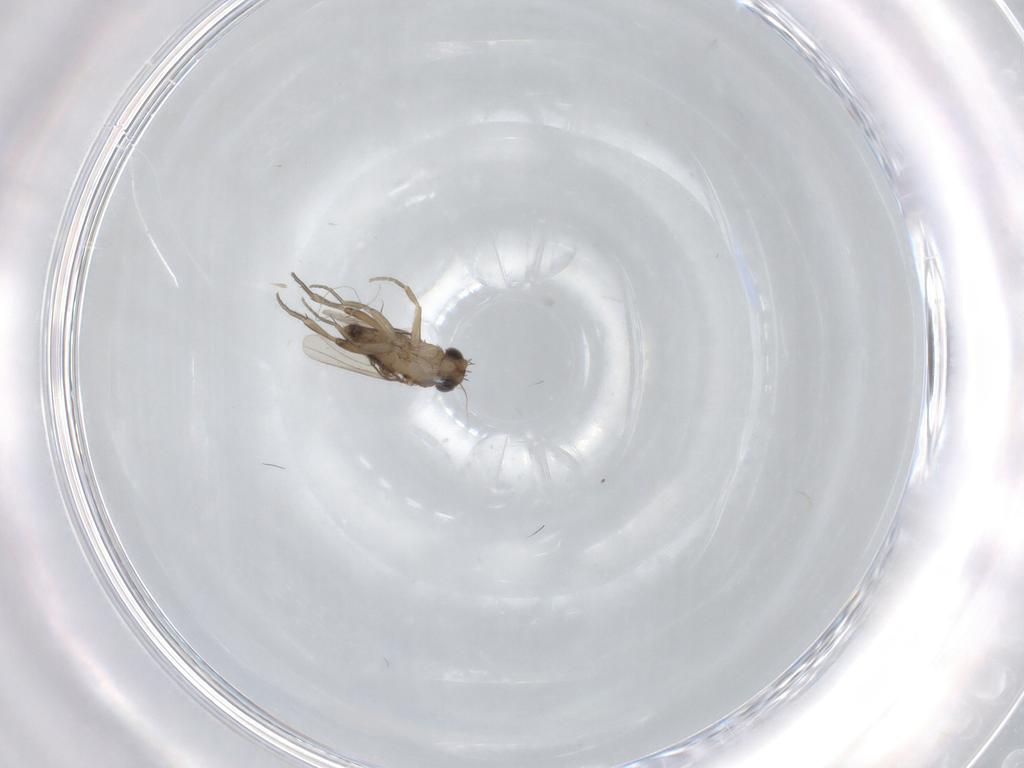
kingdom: Animalia
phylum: Arthropoda
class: Insecta
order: Diptera
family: Phoridae
